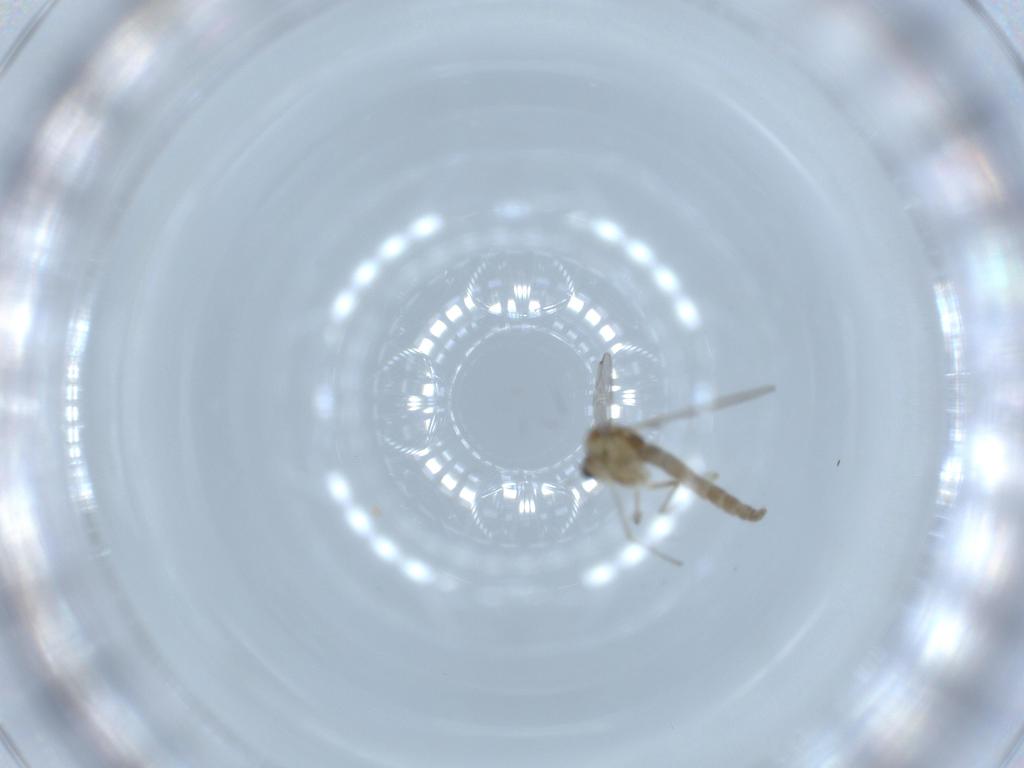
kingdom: Animalia
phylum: Arthropoda
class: Insecta
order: Diptera
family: Chironomidae
